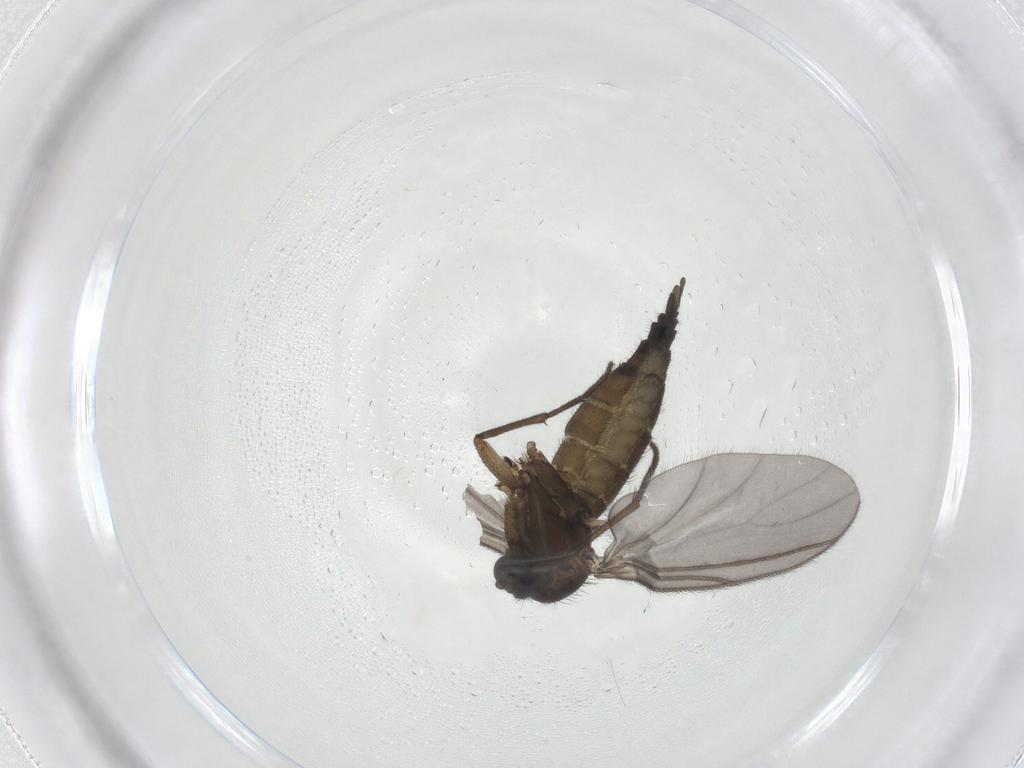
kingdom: Animalia
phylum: Arthropoda
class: Insecta
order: Diptera
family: Sciaridae
